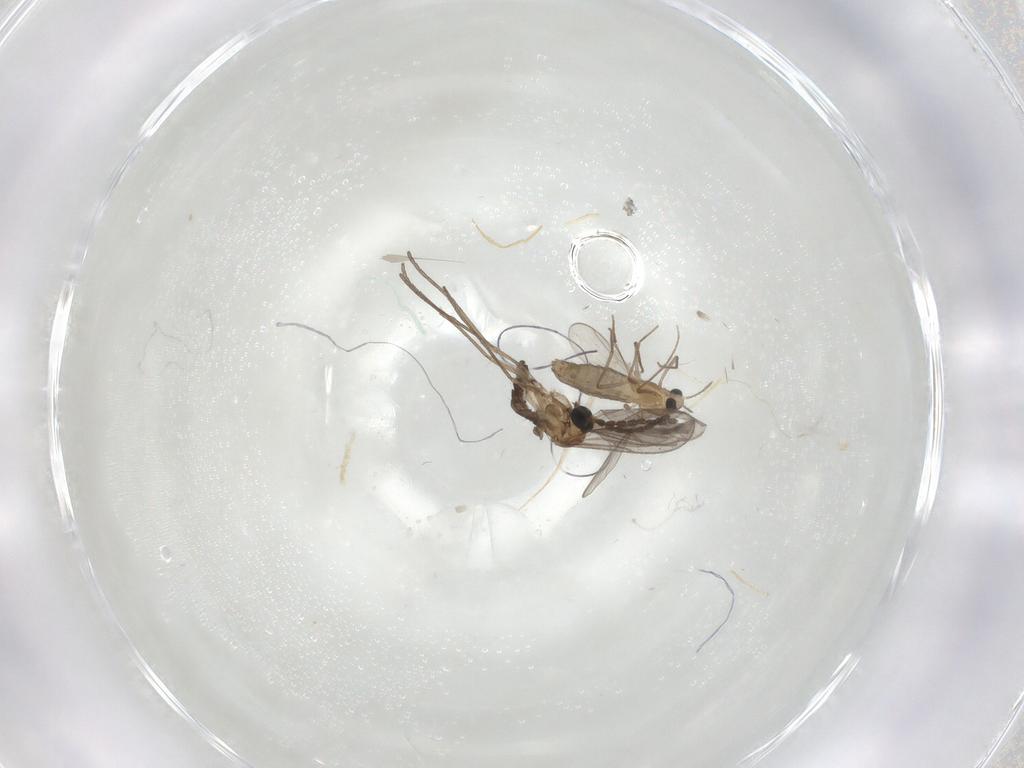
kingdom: Animalia
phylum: Arthropoda
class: Insecta
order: Diptera
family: Chironomidae
